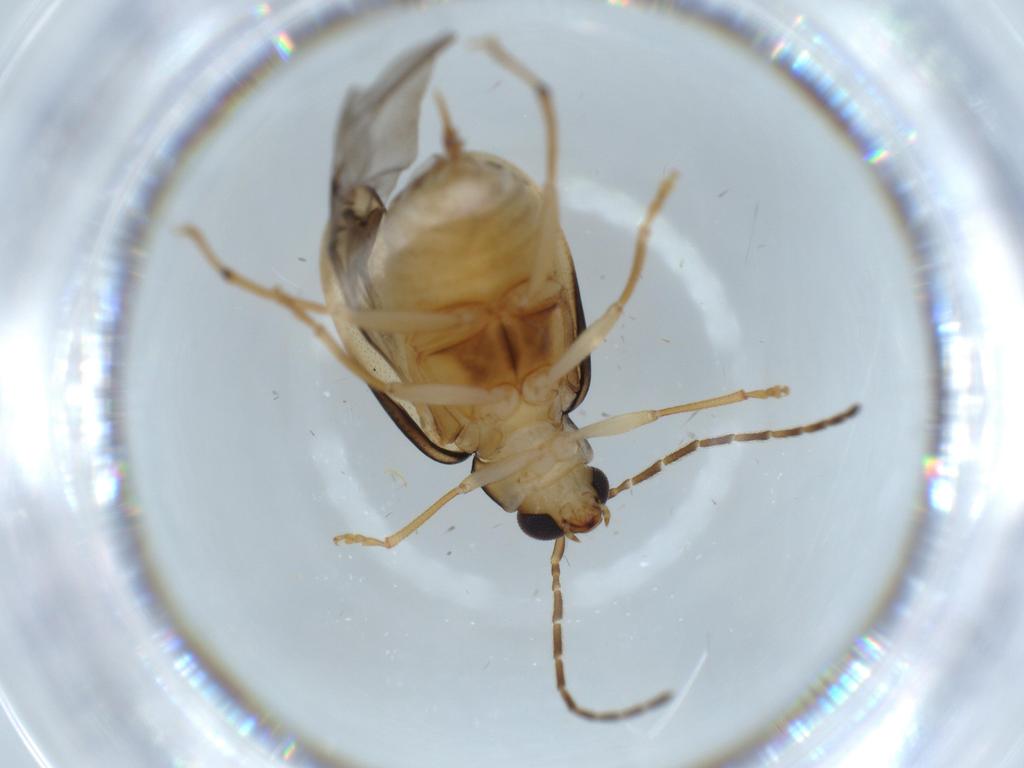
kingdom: Animalia
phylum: Arthropoda
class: Insecta
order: Coleoptera
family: Chrysomelidae
